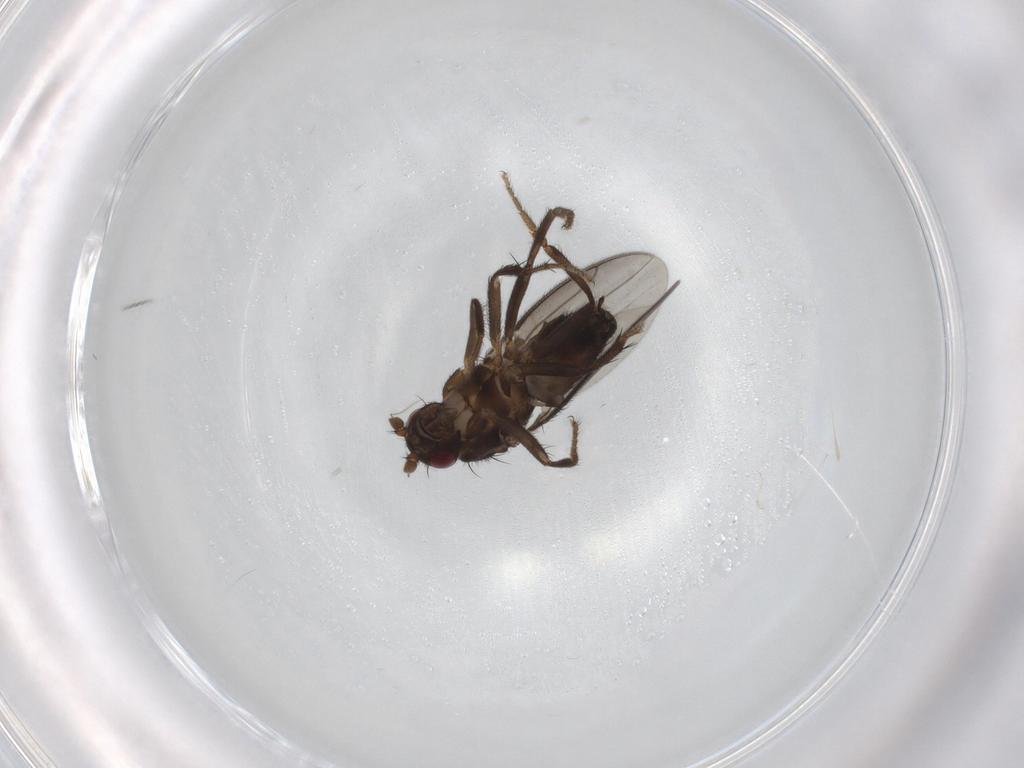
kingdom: Animalia
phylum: Arthropoda
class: Insecta
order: Diptera
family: Sphaeroceridae
